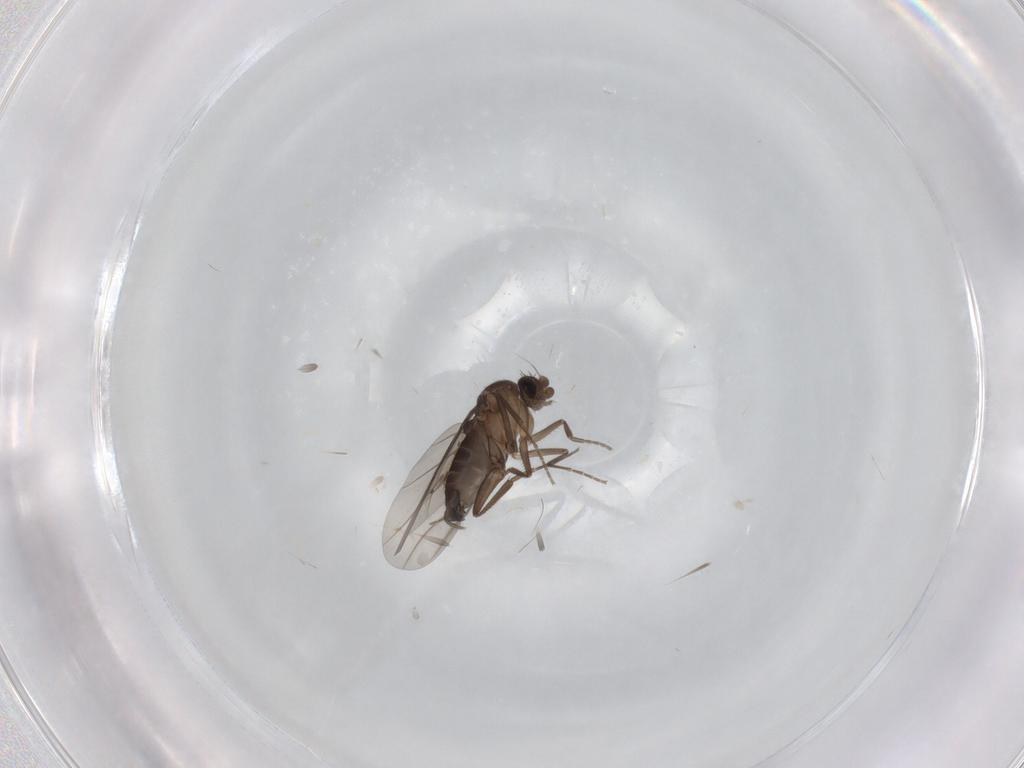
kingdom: Animalia
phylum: Arthropoda
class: Insecta
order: Diptera
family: Phoridae
